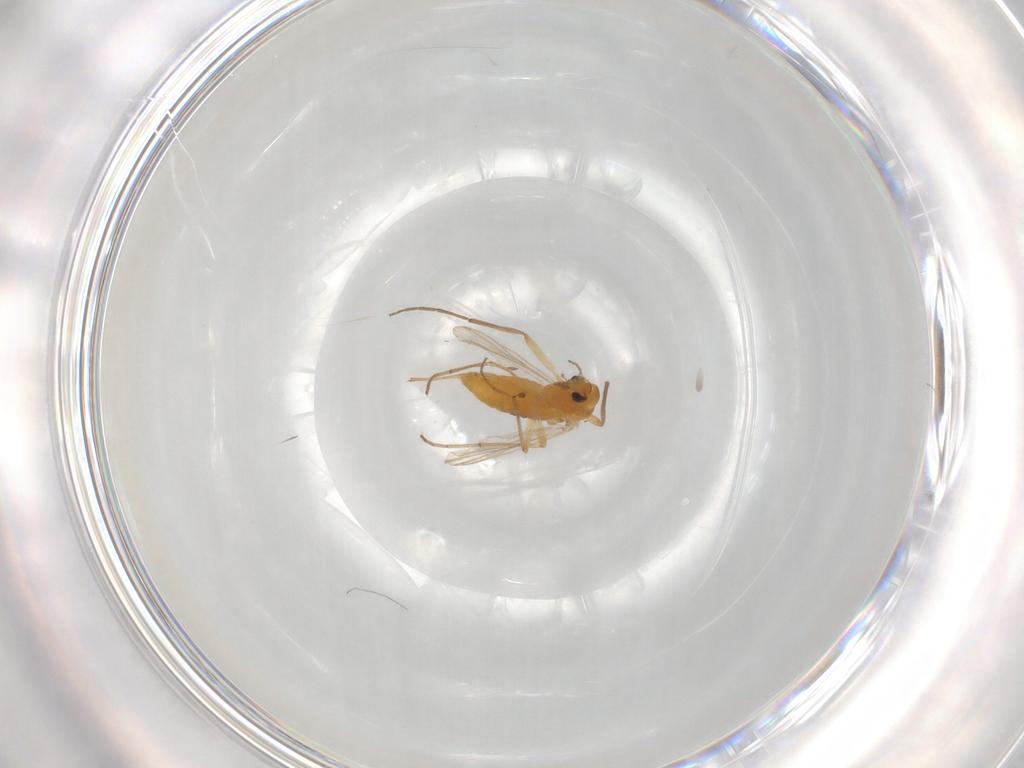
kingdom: Animalia
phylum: Arthropoda
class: Insecta
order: Diptera
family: Psychodidae
